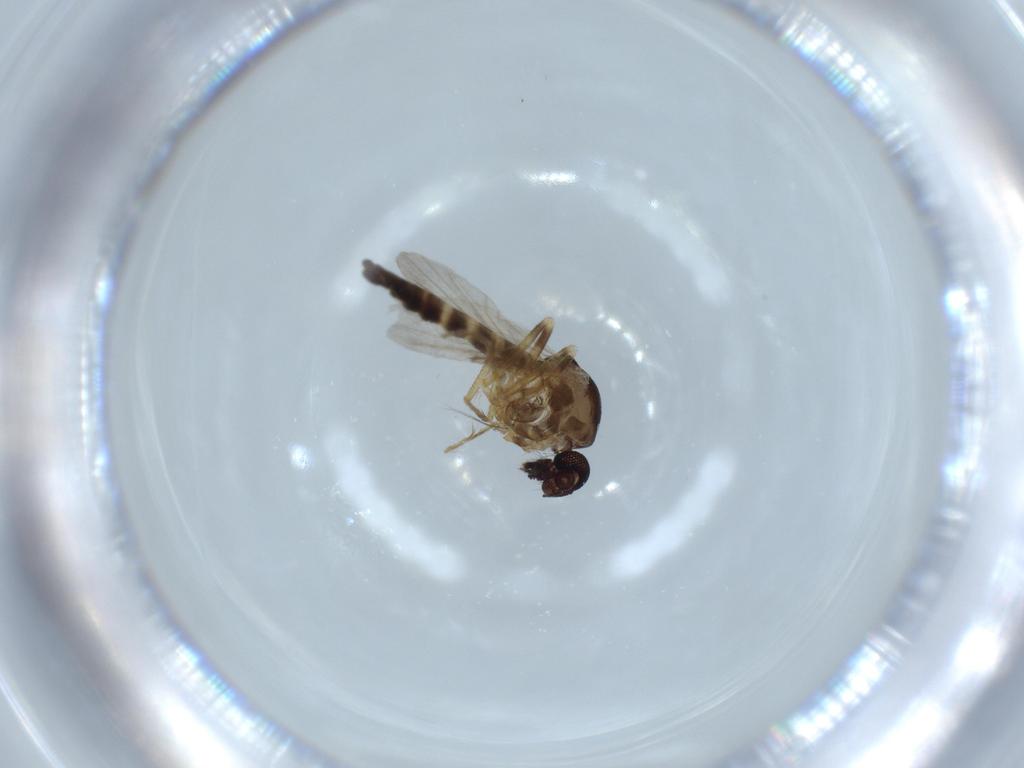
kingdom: Animalia
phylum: Arthropoda
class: Insecta
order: Diptera
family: Ceratopogonidae
